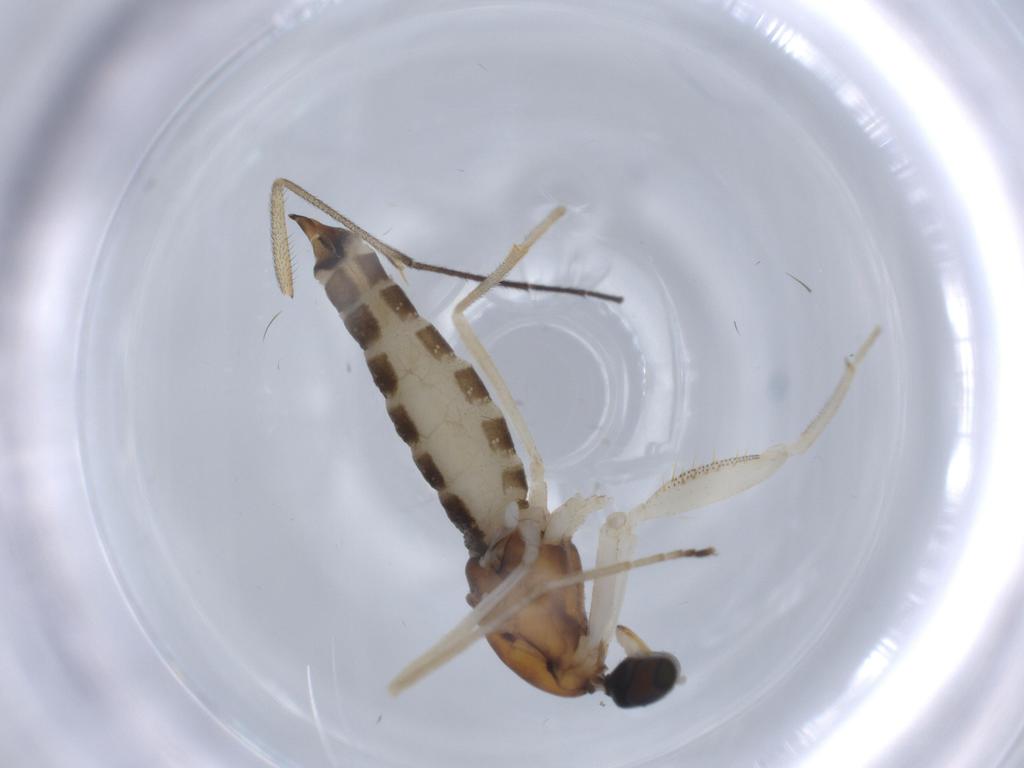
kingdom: Animalia
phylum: Arthropoda
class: Insecta
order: Diptera
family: Empididae
